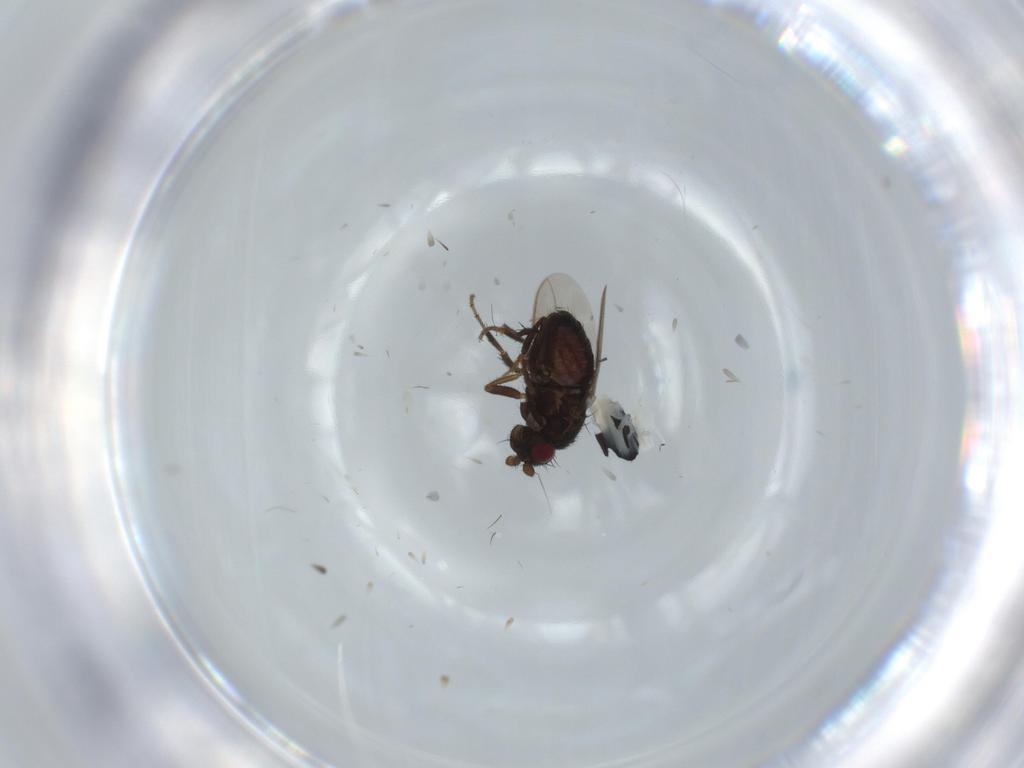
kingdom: Animalia
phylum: Arthropoda
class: Insecta
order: Diptera
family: Milichiidae
